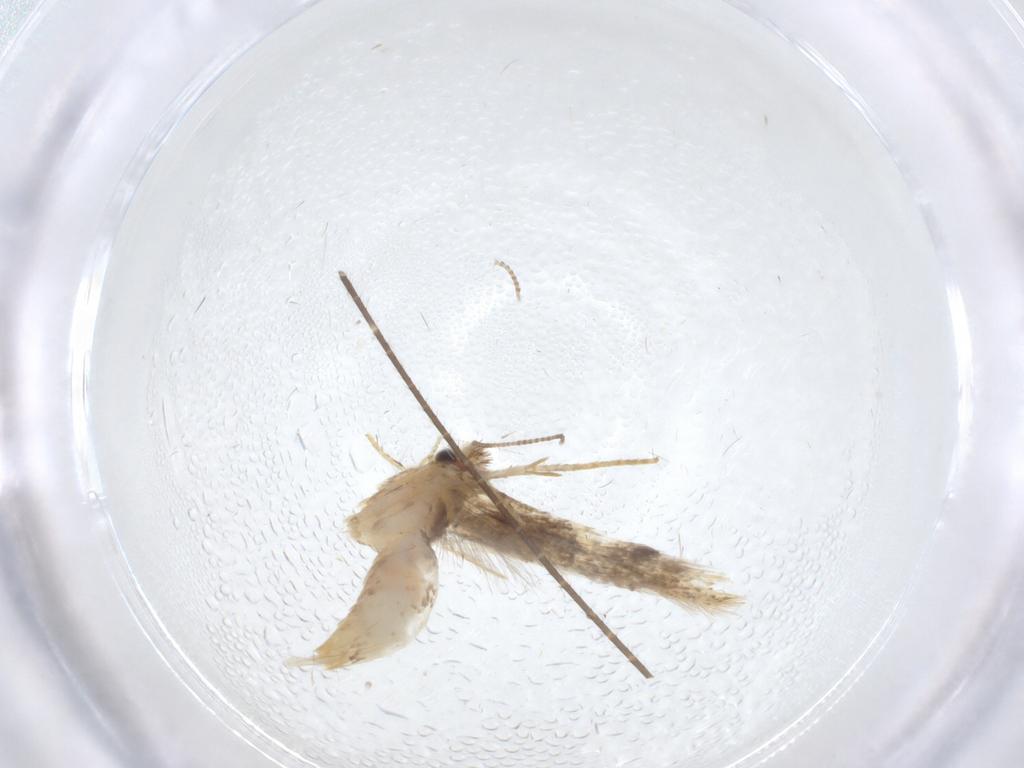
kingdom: Animalia
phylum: Arthropoda
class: Insecta
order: Lepidoptera
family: Tineidae
